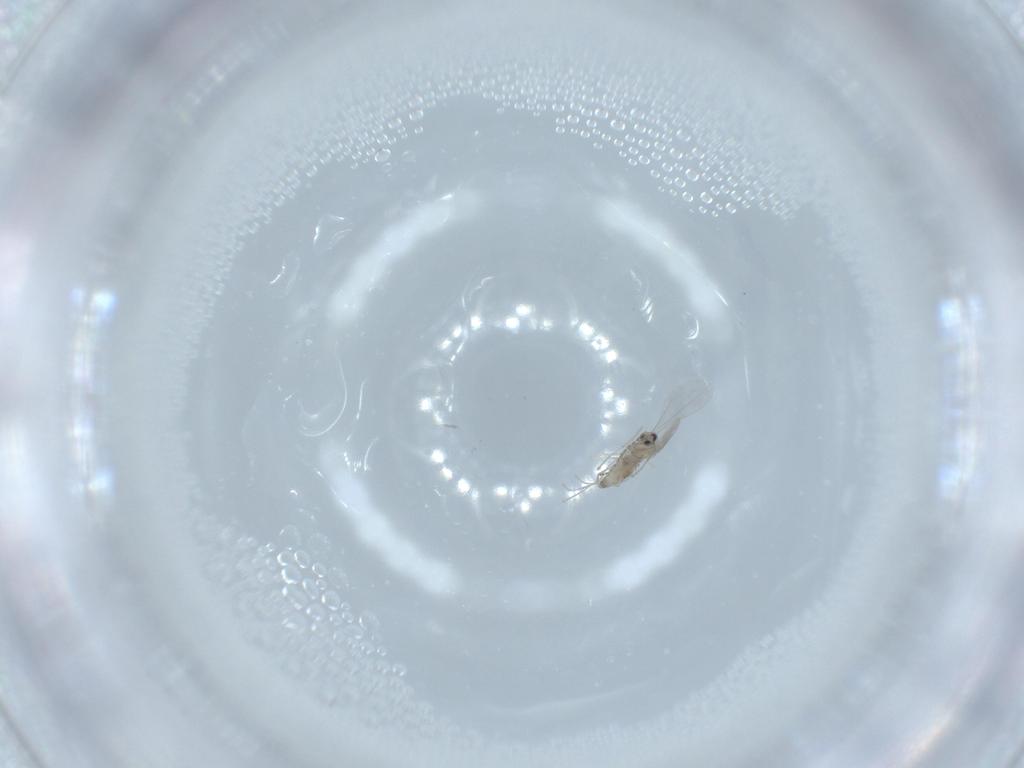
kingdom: Animalia
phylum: Arthropoda
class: Insecta
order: Diptera
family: Cecidomyiidae
